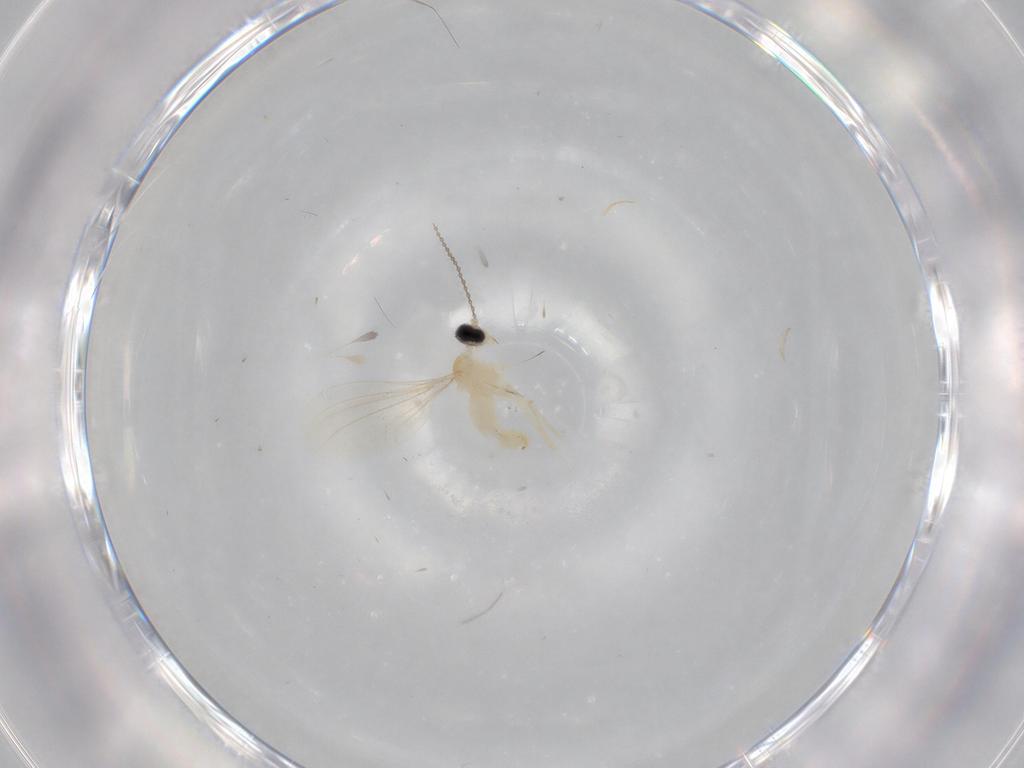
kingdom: Animalia
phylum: Arthropoda
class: Insecta
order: Diptera
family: Cecidomyiidae
